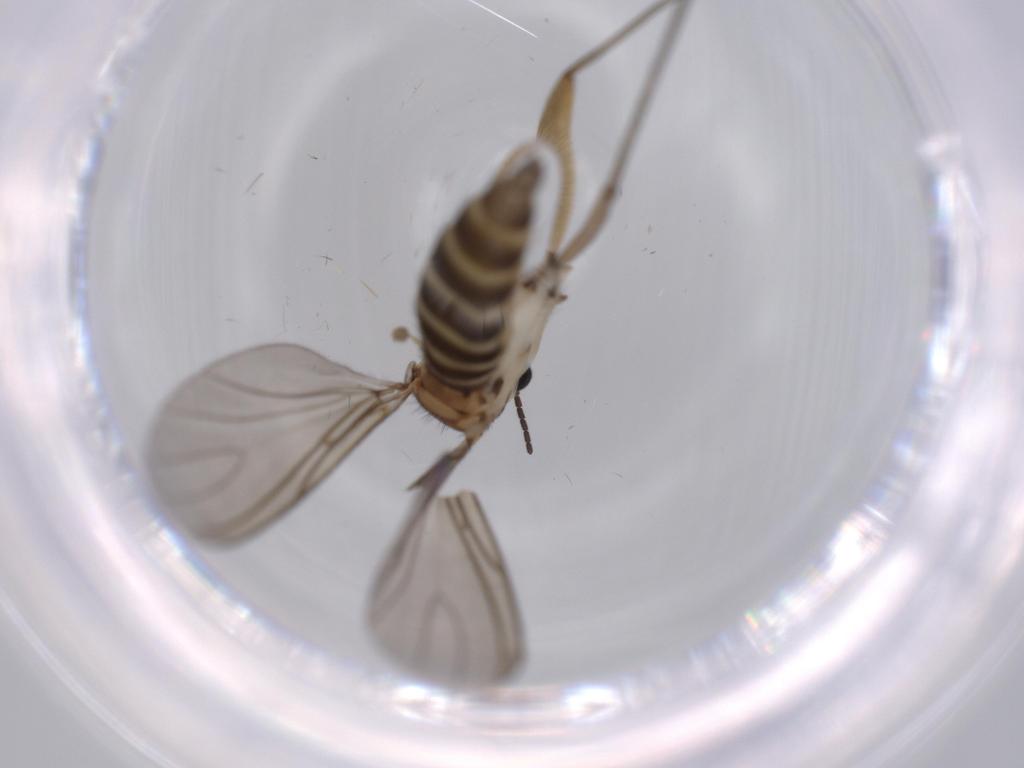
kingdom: Animalia
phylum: Arthropoda
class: Insecta
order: Diptera
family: Sciaridae
